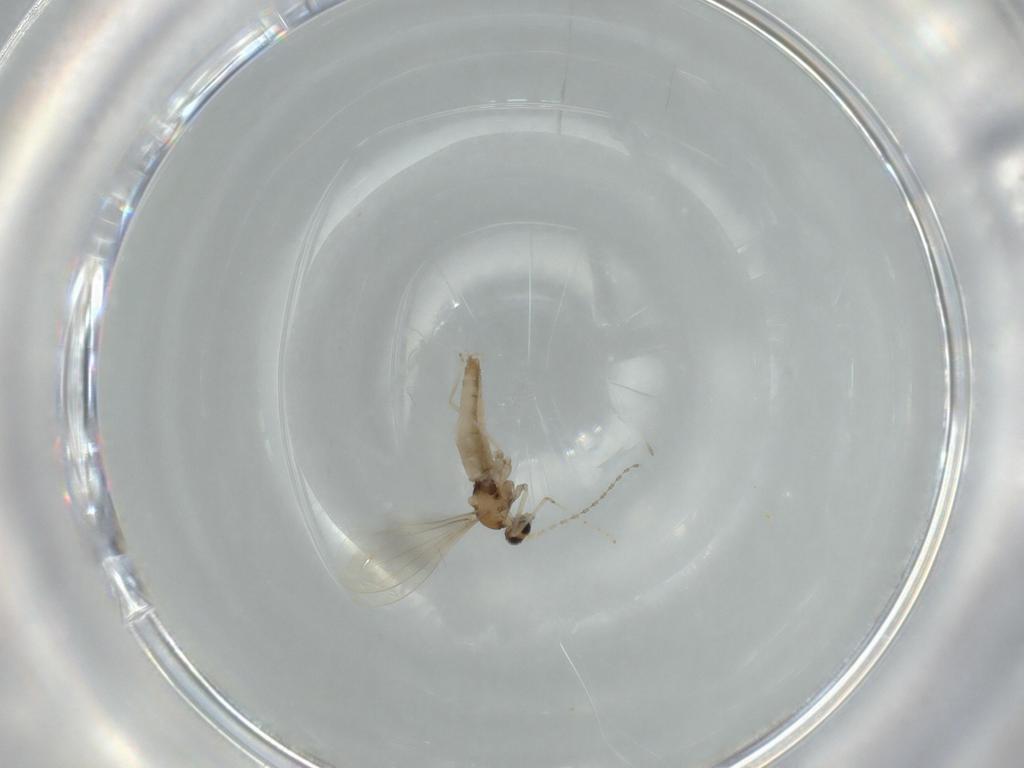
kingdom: Animalia
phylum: Arthropoda
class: Insecta
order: Diptera
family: Cecidomyiidae
